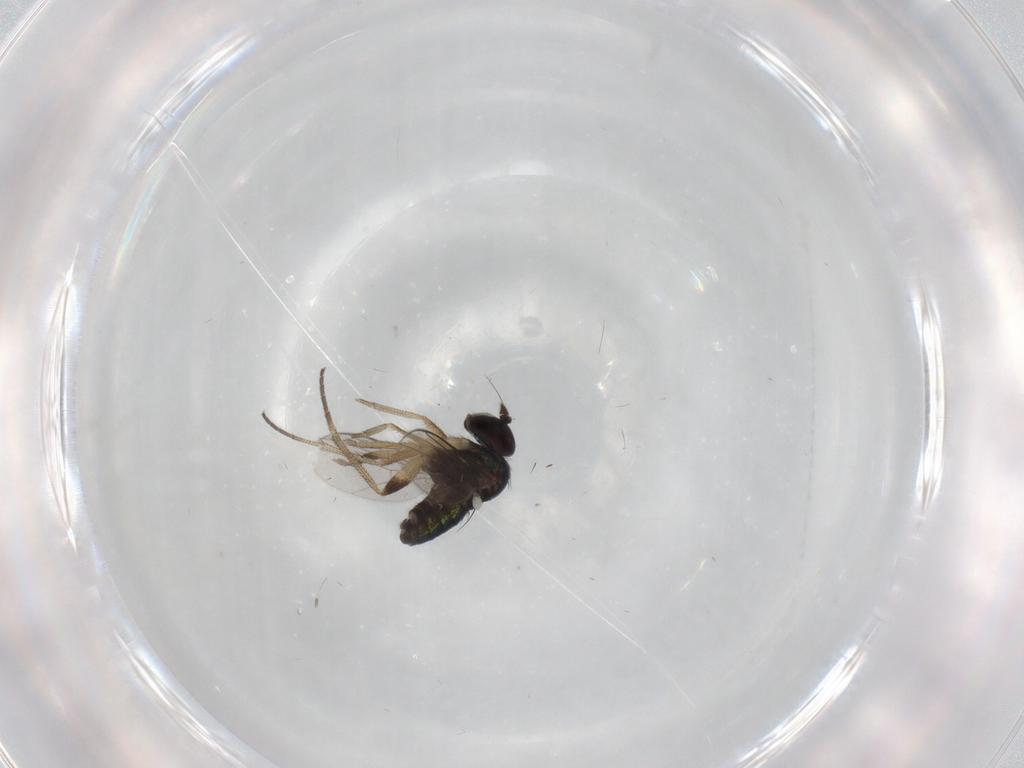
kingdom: Animalia
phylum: Arthropoda
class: Insecta
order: Diptera
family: Dolichopodidae
